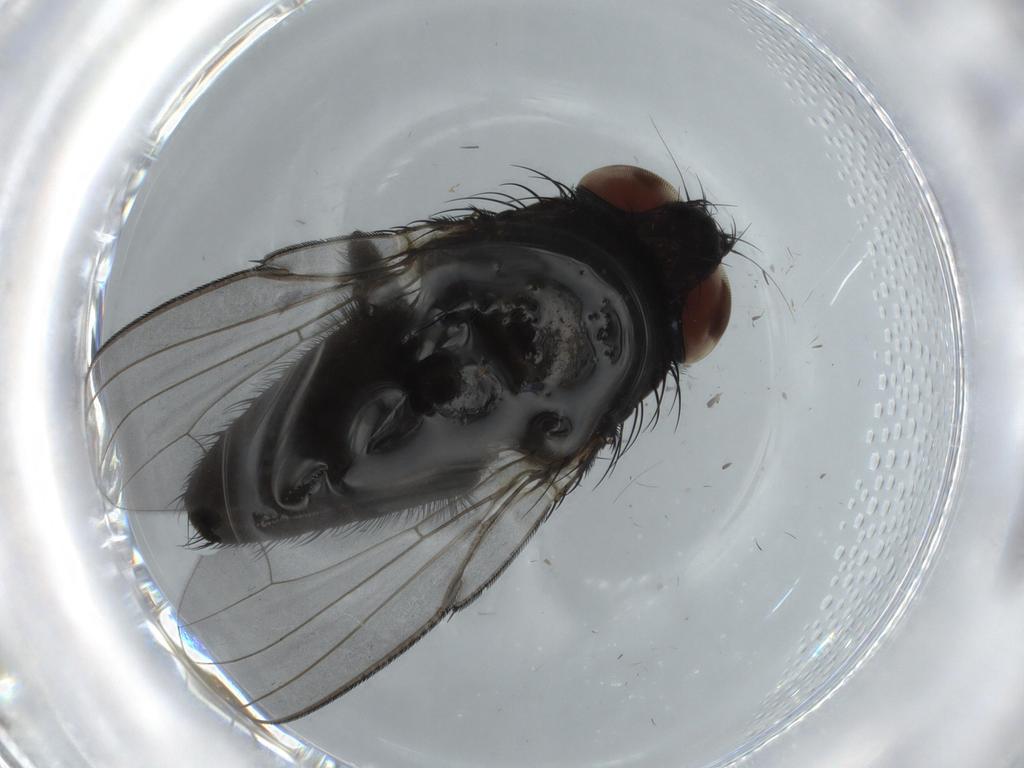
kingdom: Animalia
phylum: Arthropoda
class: Insecta
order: Diptera
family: Milichiidae
